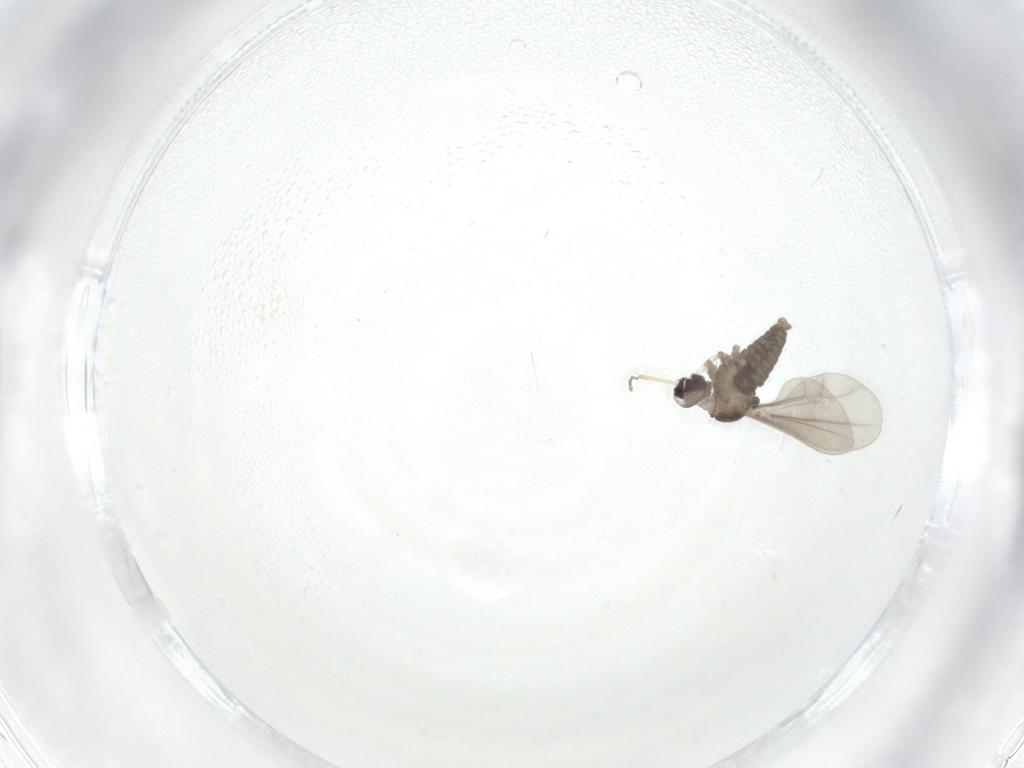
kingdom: Animalia
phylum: Arthropoda
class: Insecta
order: Diptera
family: Cecidomyiidae
